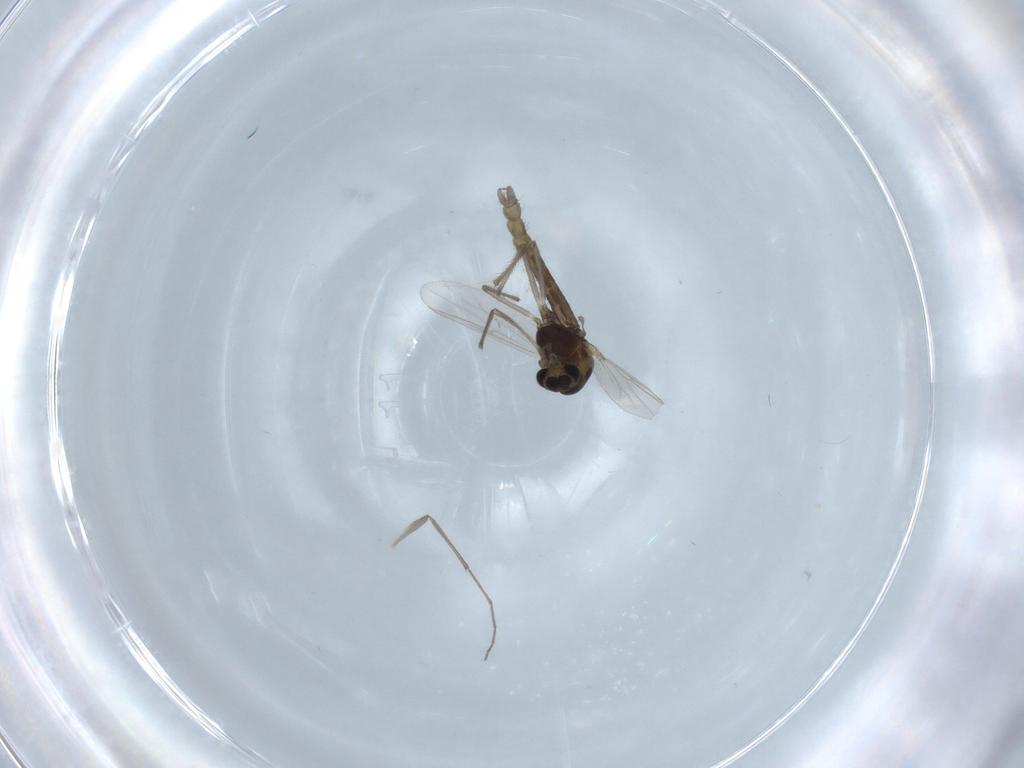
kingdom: Animalia
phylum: Arthropoda
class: Insecta
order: Diptera
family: Chironomidae
